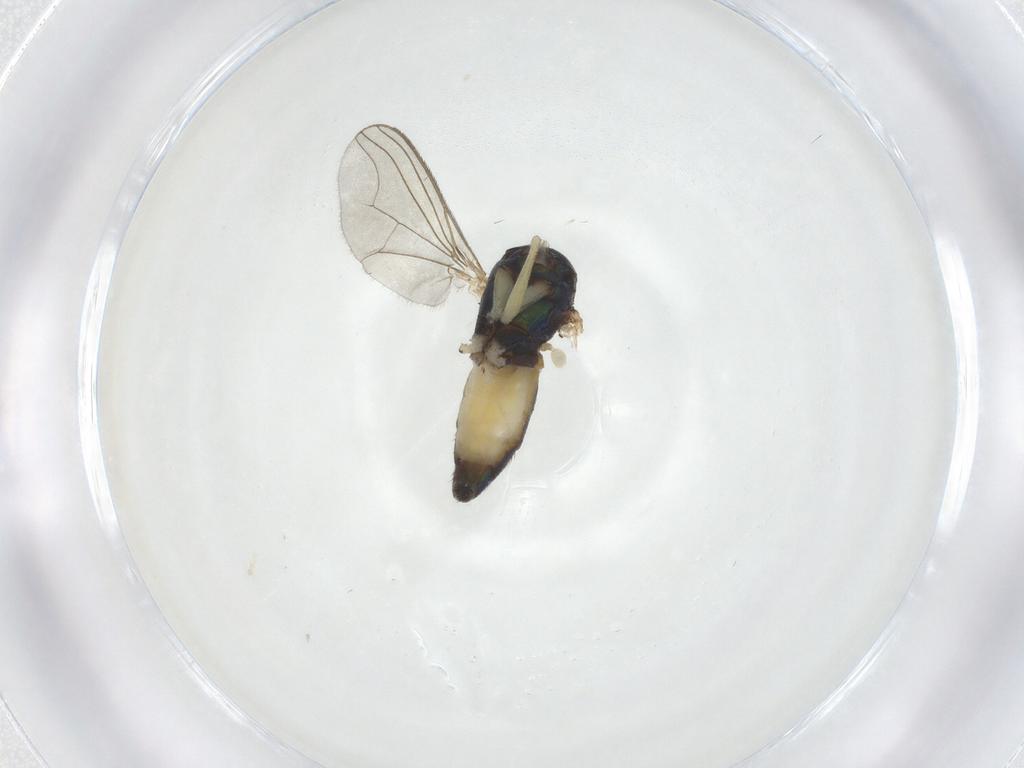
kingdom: Animalia
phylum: Arthropoda
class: Insecta
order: Diptera
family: Dolichopodidae
